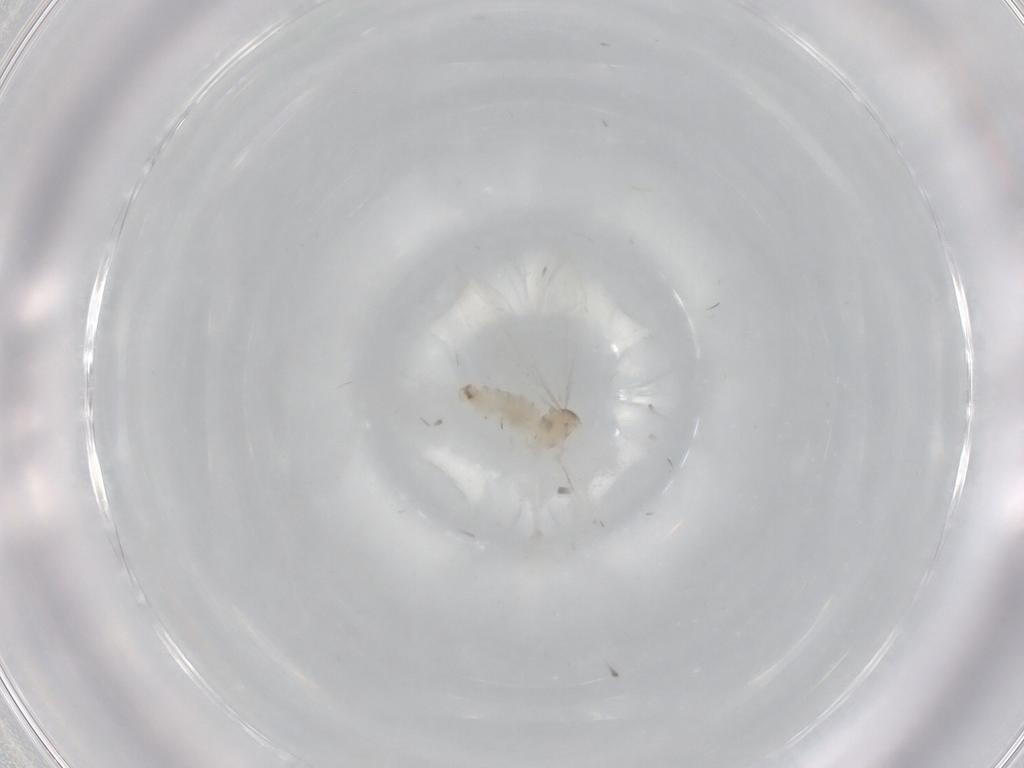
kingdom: Animalia
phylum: Arthropoda
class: Insecta
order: Diptera
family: Cecidomyiidae
